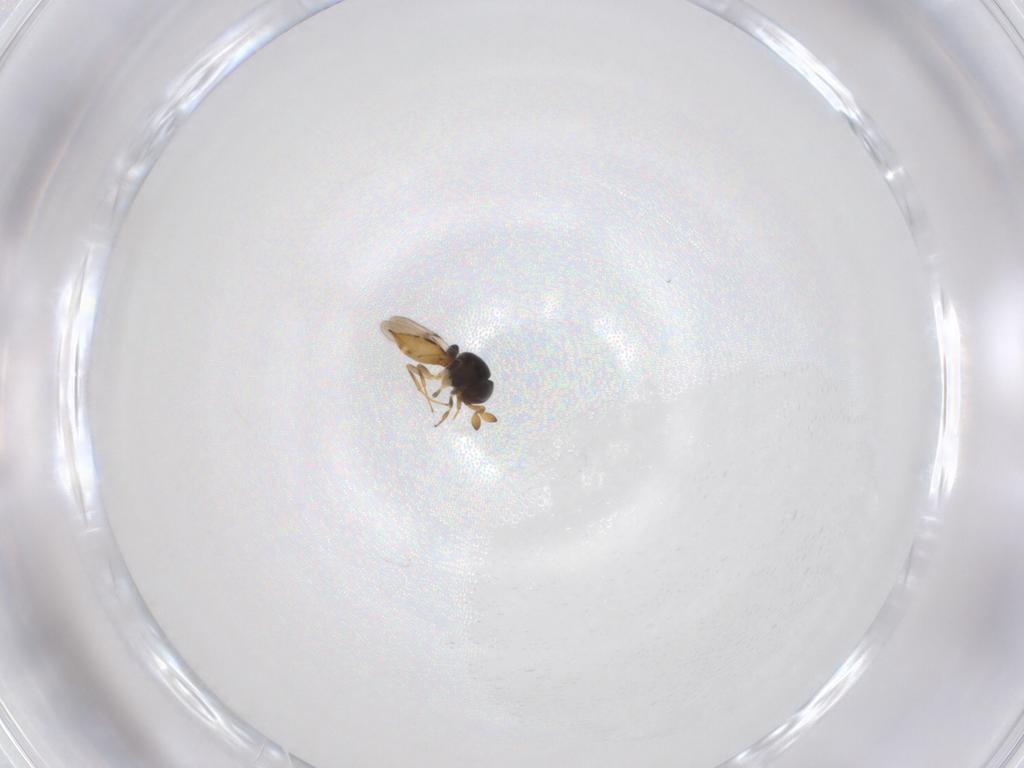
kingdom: Animalia
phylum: Arthropoda
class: Insecta
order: Hymenoptera
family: Scelionidae
